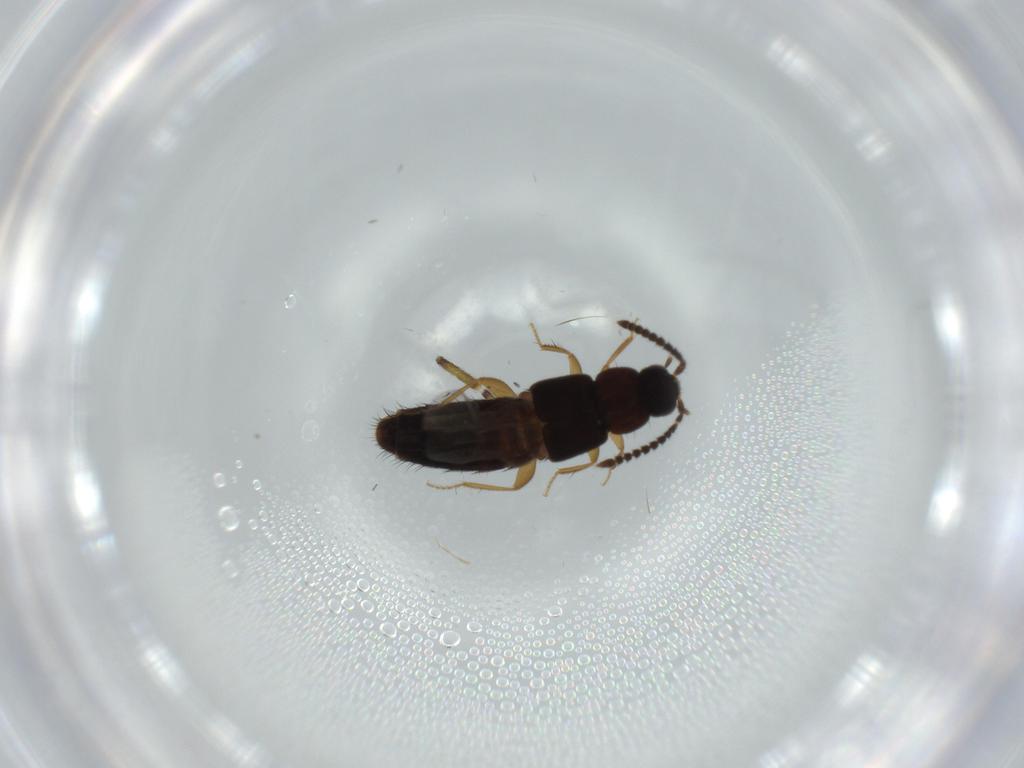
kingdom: Animalia
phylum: Arthropoda
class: Insecta
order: Coleoptera
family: Staphylinidae
